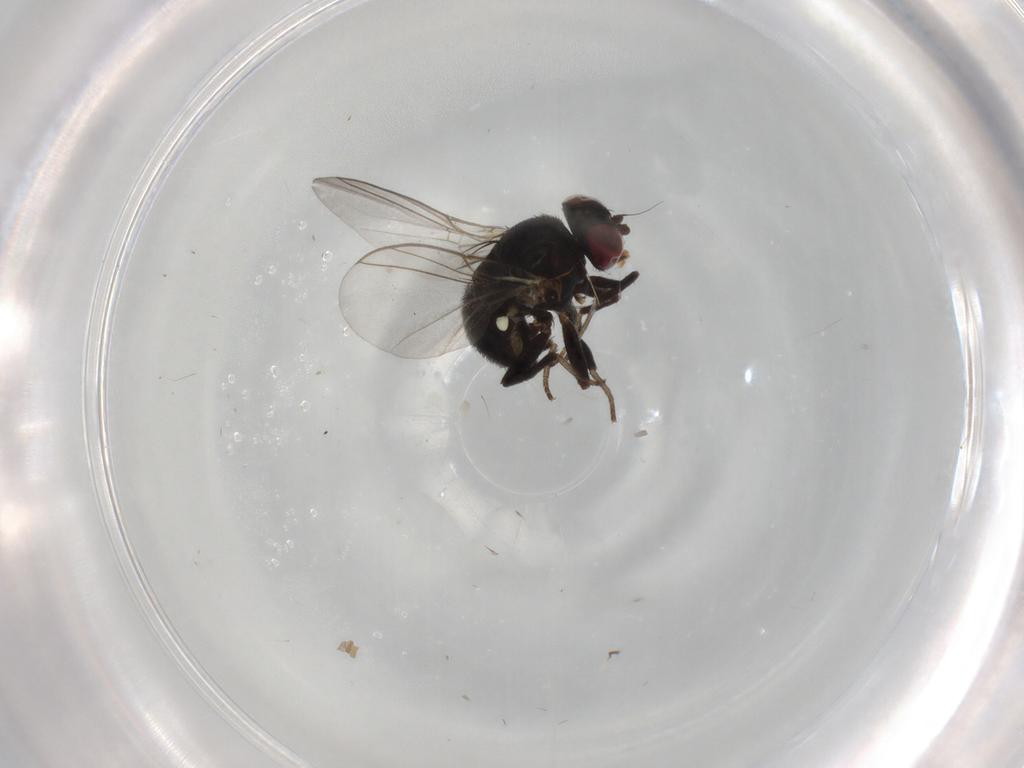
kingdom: Animalia
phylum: Arthropoda
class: Insecta
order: Diptera
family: Agromyzidae
